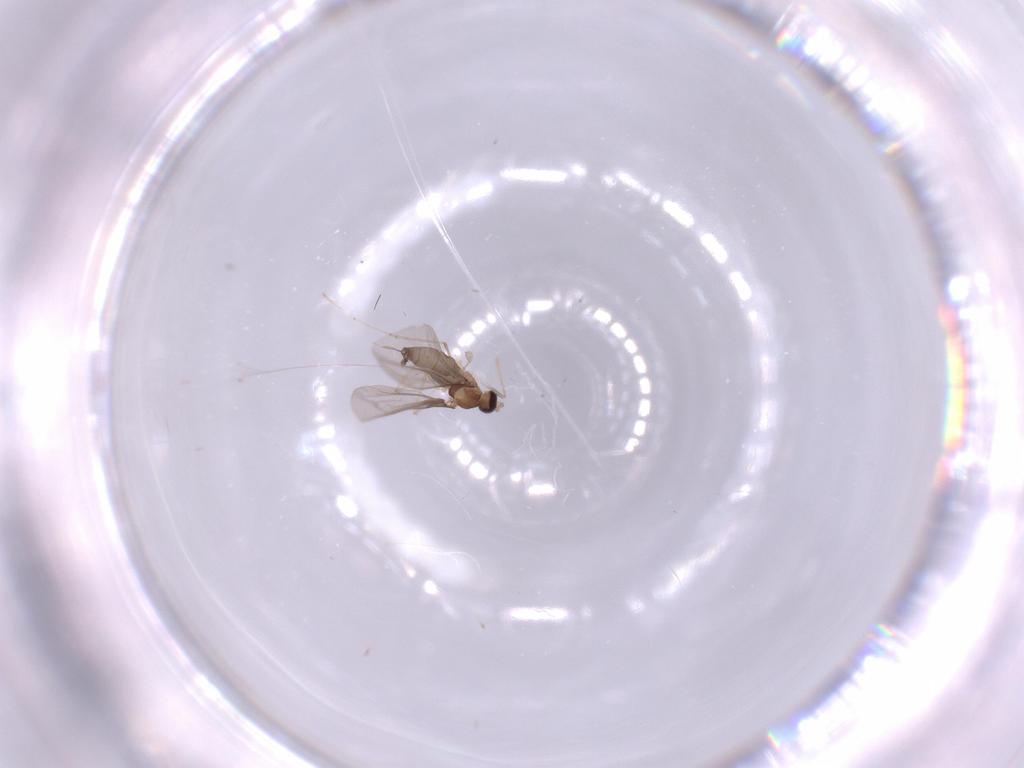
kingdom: Animalia
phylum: Arthropoda
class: Insecta
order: Diptera
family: Cecidomyiidae
